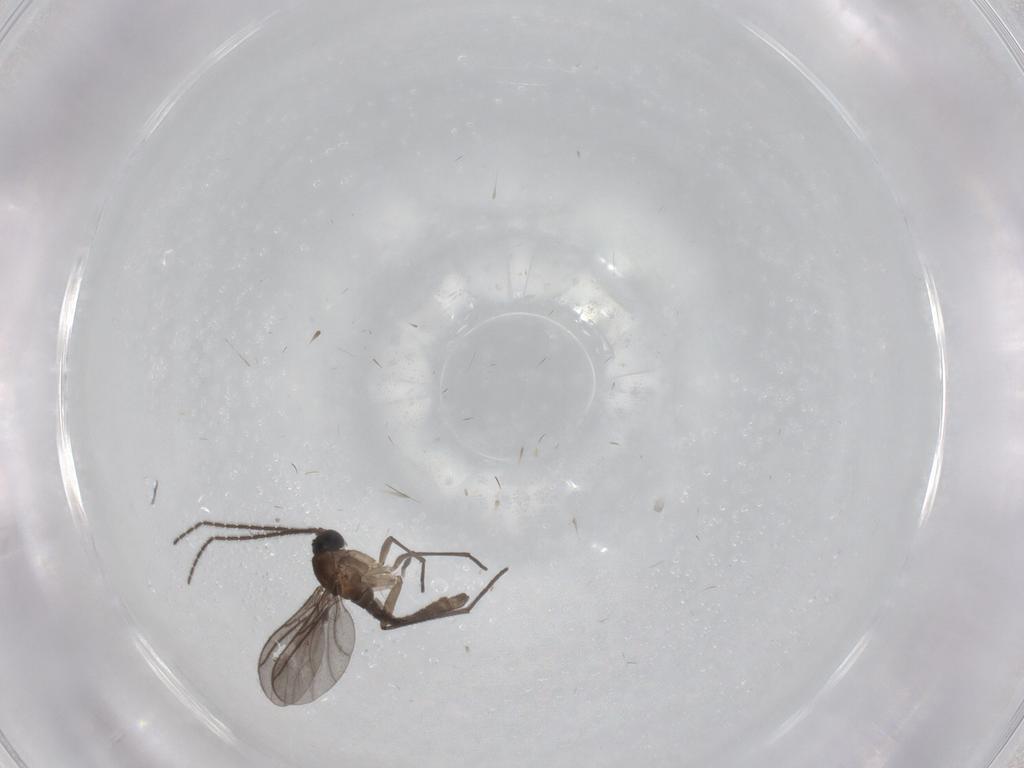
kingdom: Animalia
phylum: Arthropoda
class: Insecta
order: Diptera
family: Sciaridae
